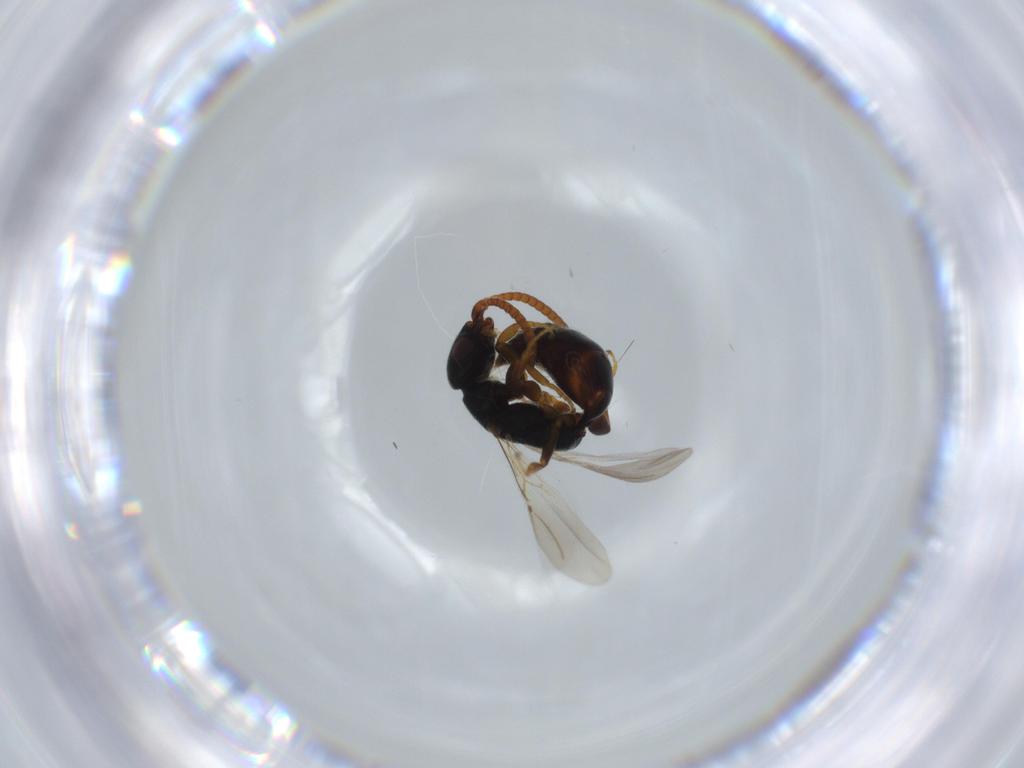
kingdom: Animalia
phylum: Arthropoda
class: Insecta
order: Hymenoptera
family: Bethylidae
